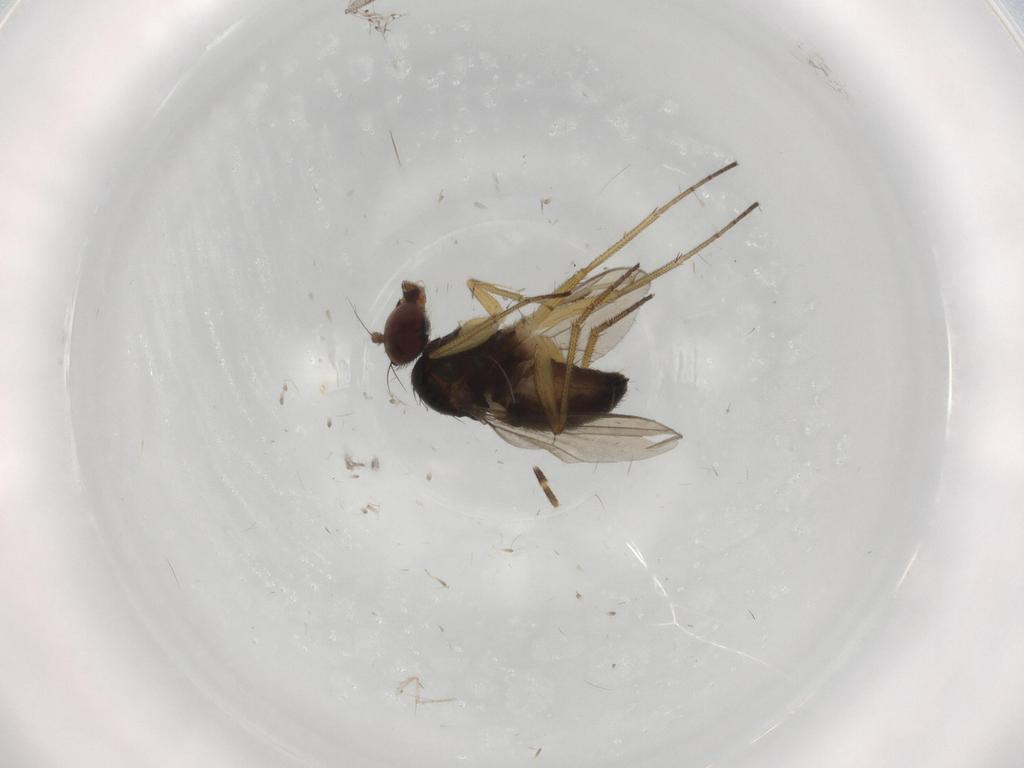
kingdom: Animalia
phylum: Arthropoda
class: Insecta
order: Diptera
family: Dolichopodidae
